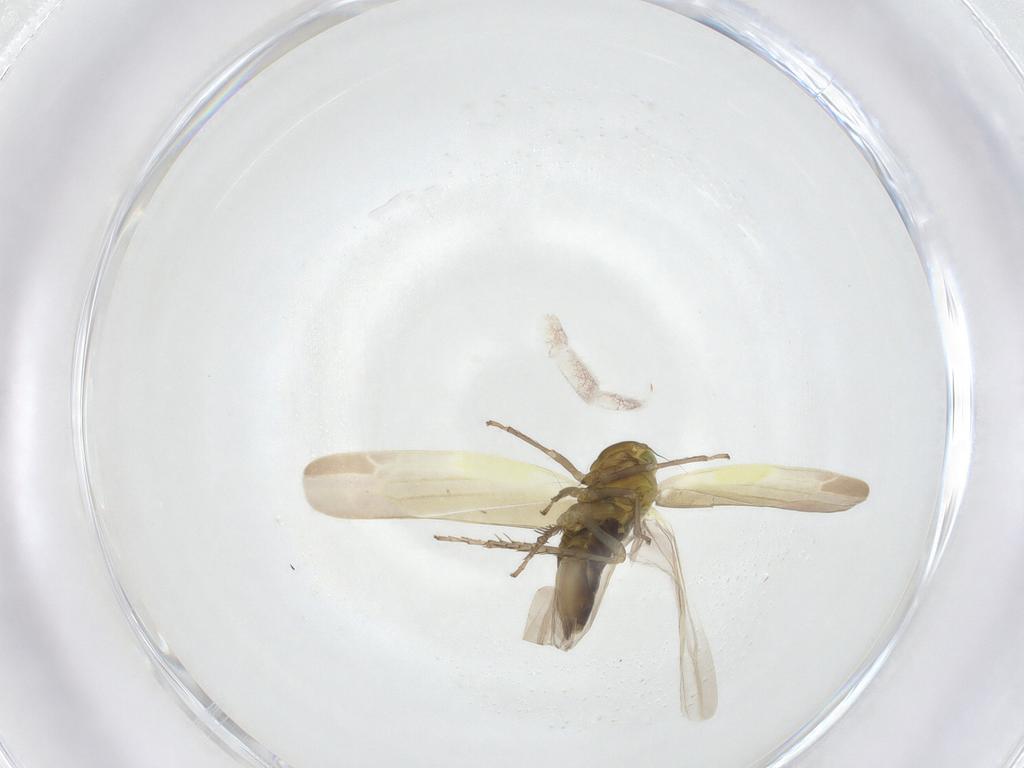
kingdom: Animalia
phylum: Arthropoda
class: Insecta
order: Hemiptera
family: Cicadellidae
